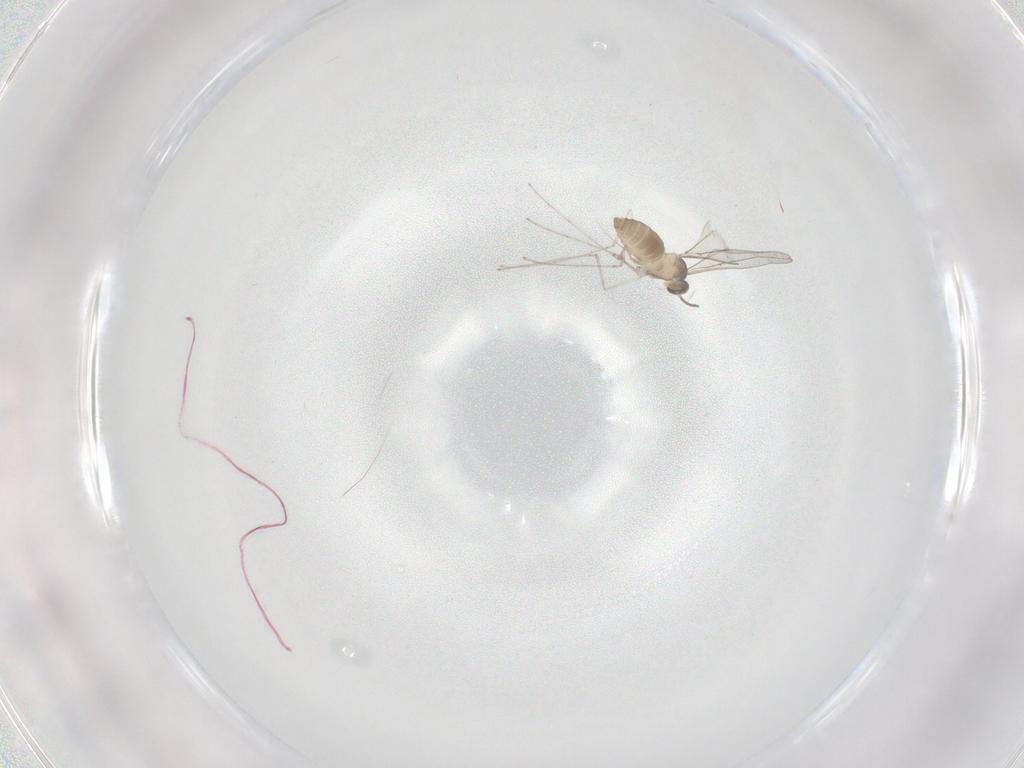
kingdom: Animalia
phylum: Arthropoda
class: Insecta
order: Diptera
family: Cecidomyiidae
